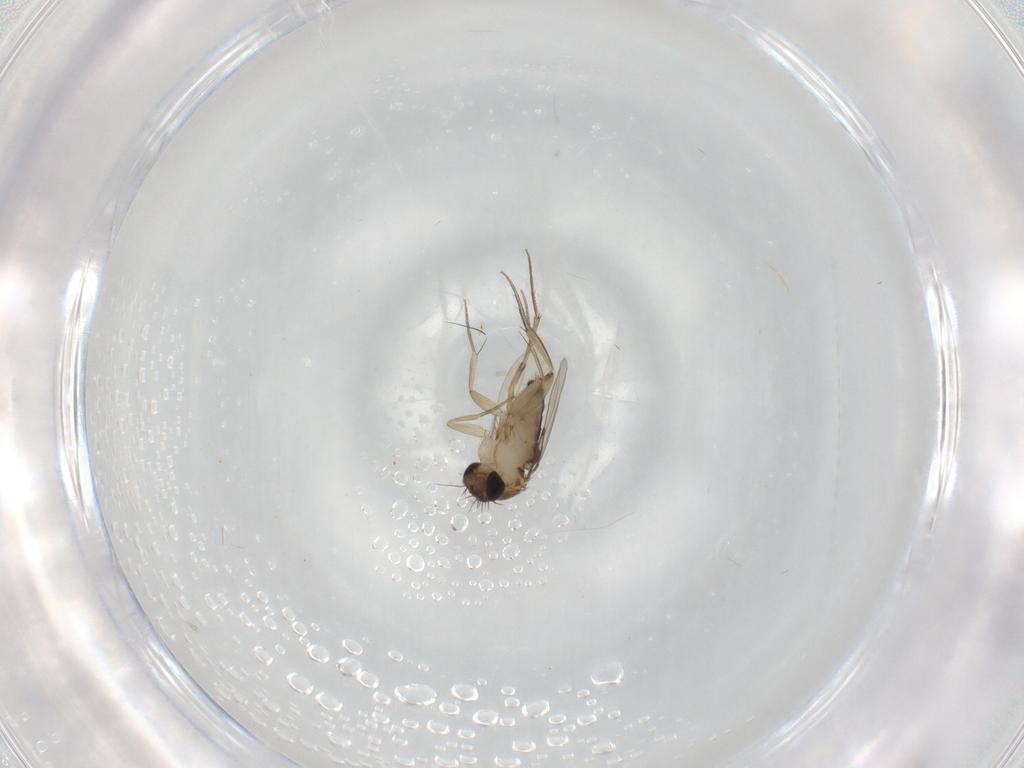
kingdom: Animalia
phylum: Arthropoda
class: Insecta
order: Diptera
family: Phoridae
